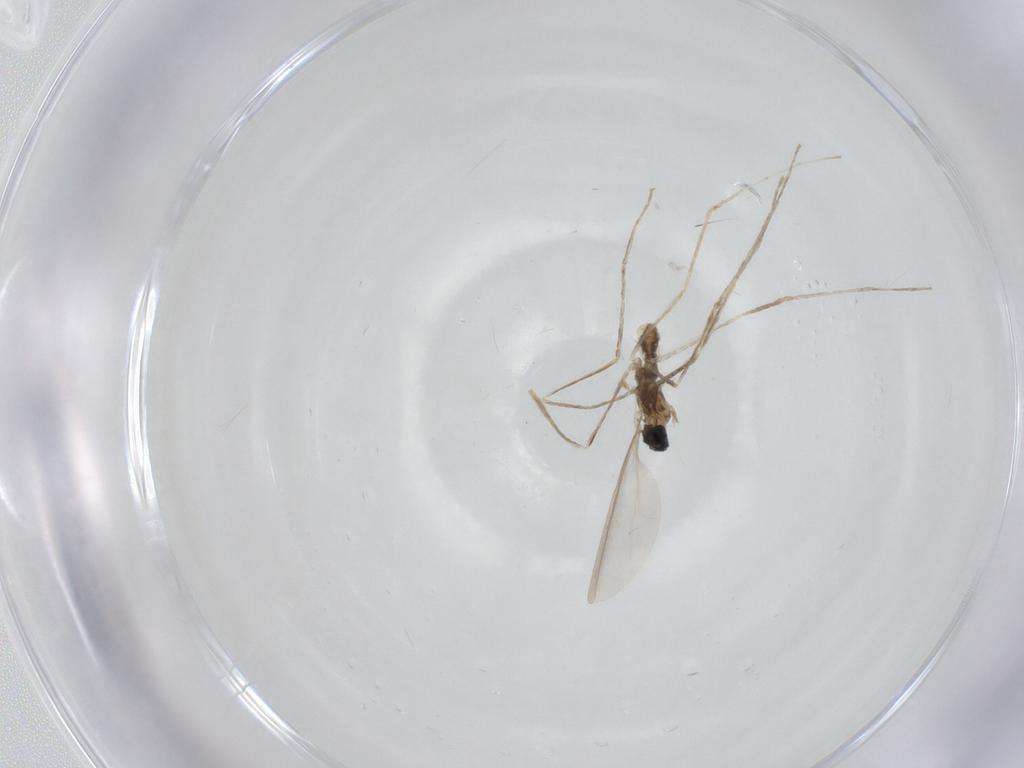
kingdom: Animalia
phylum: Arthropoda
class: Insecta
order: Diptera
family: Cecidomyiidae
